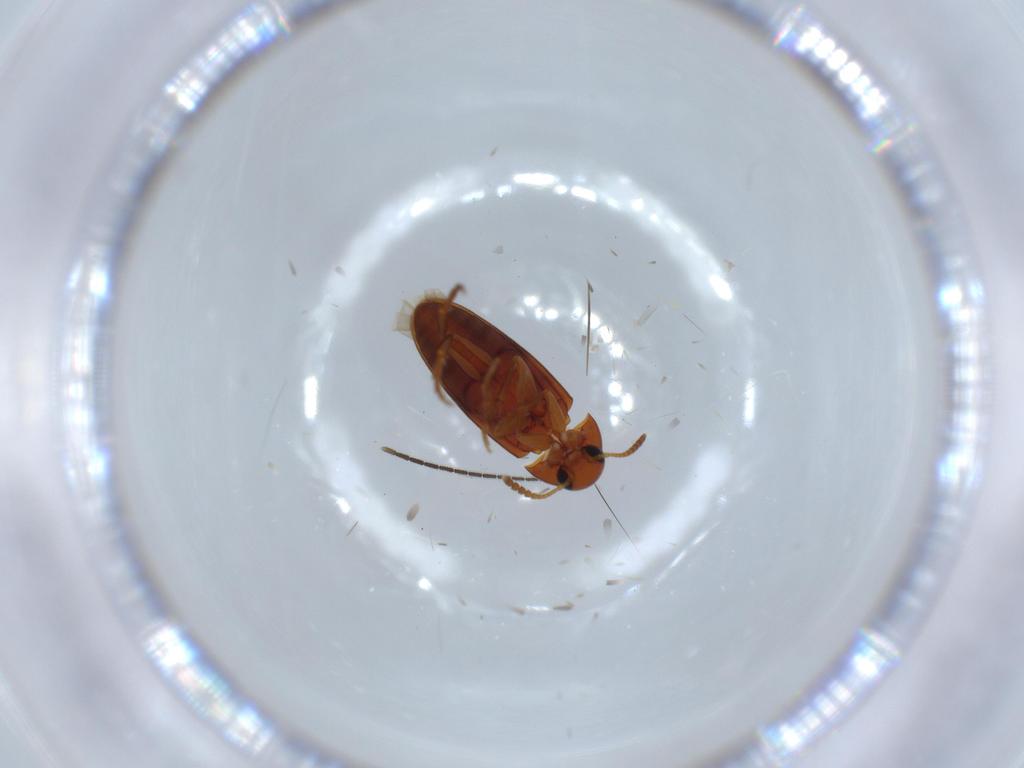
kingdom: Animalia
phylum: Arthropoda
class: Insecta
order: Coleoptera
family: Scraptiidae
